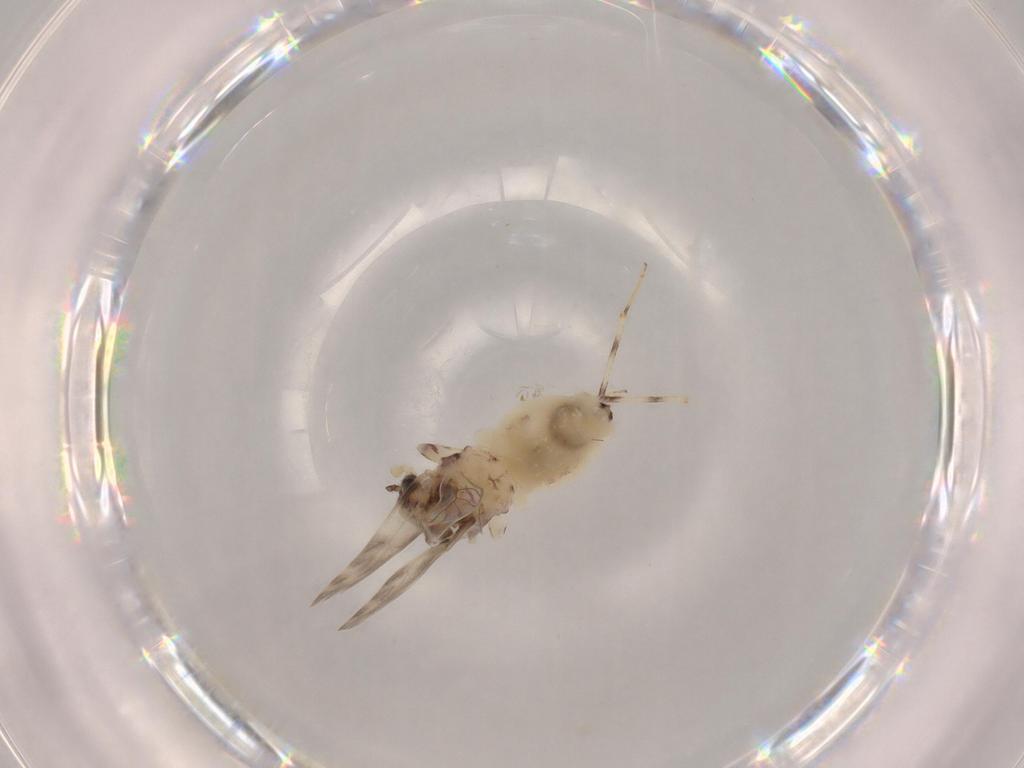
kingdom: Animalia
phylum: Arthropoda
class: Insecta
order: Psocodea
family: Lepidopsocidae
